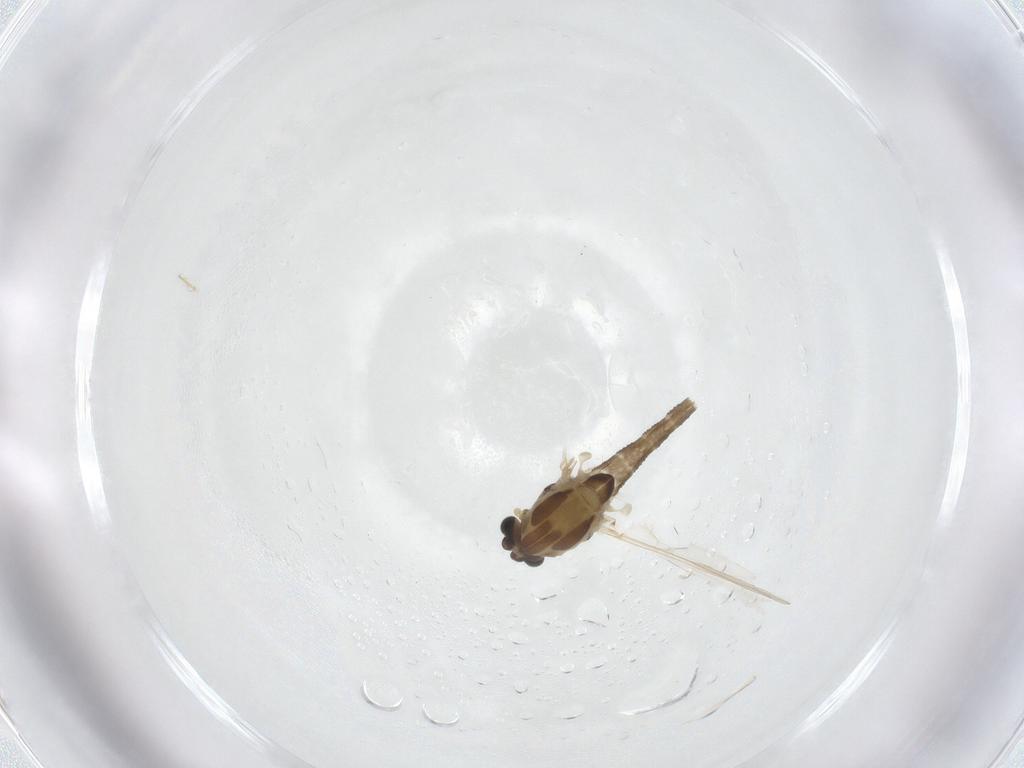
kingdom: Animalia
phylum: Arthropoda
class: Insecta
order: Diptera
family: Chironomidae
